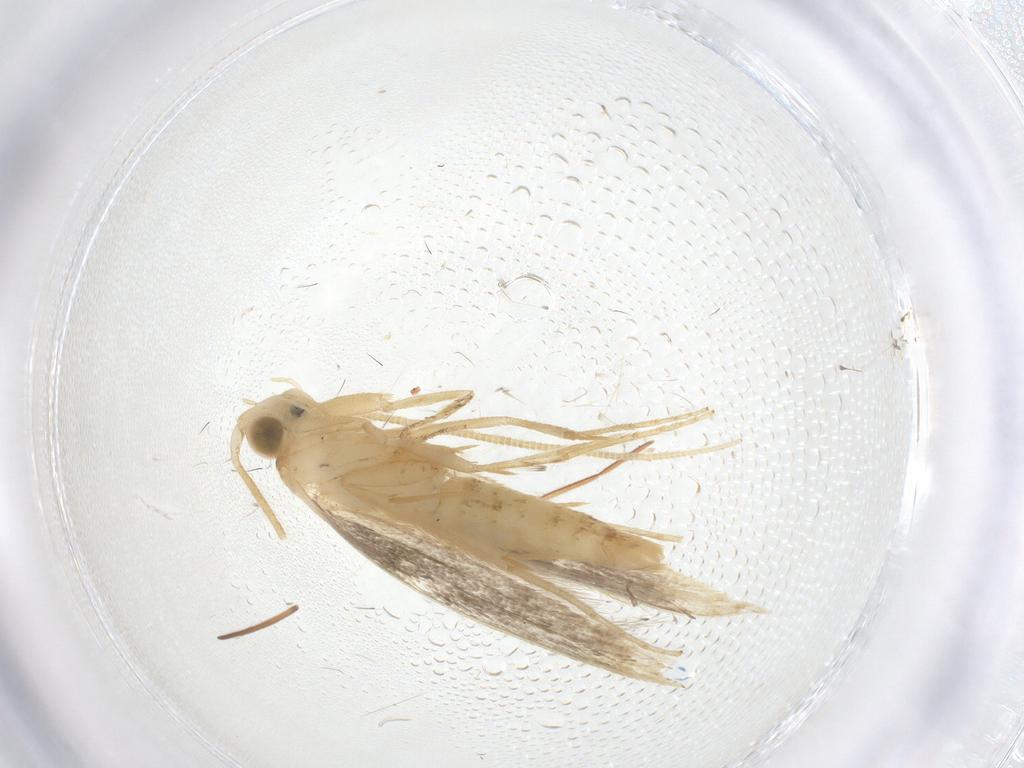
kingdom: Animalia
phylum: Arthropoda
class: Insecta
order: Lepidoptera
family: Tineidae
